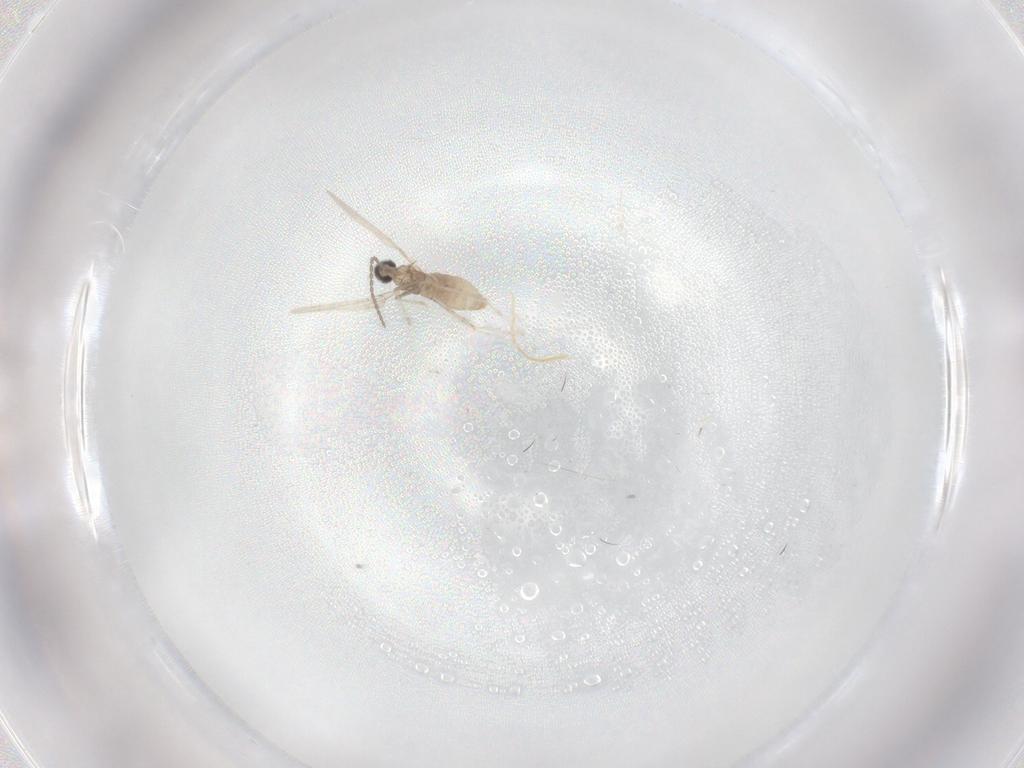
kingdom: Animalia
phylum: Arthropoda
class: Insecta
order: Diptera
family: Cecidomyiidae
